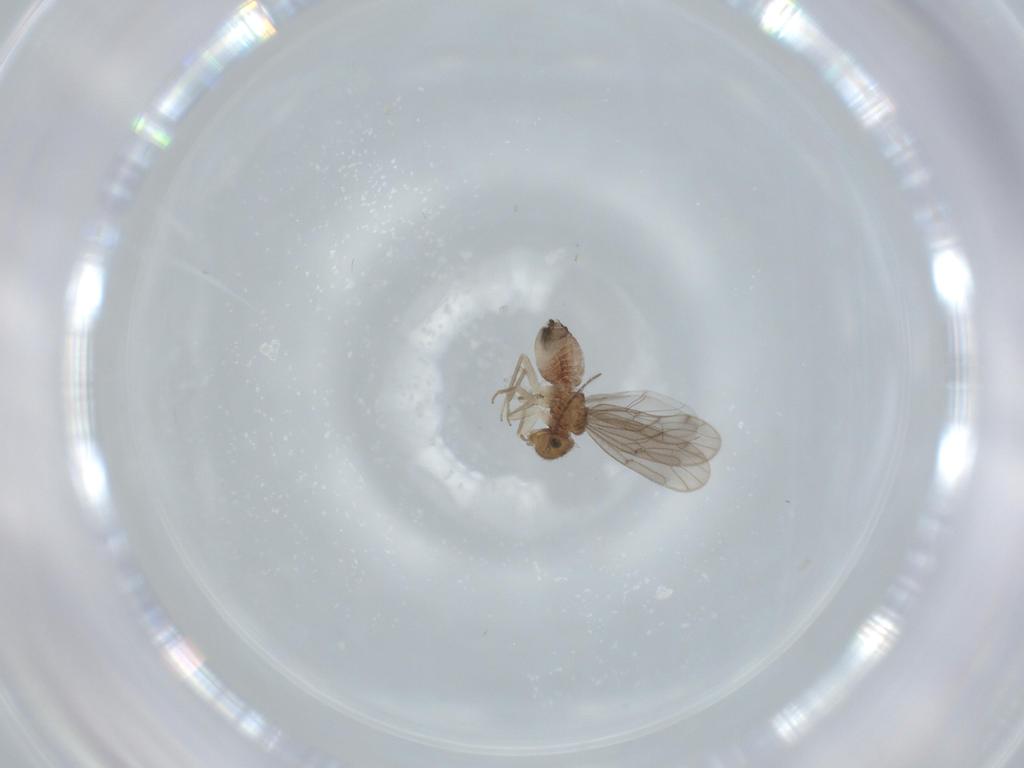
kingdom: Animalia
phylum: Arthropoda
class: Insecta
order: Psocodea
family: Ectopsocidae
